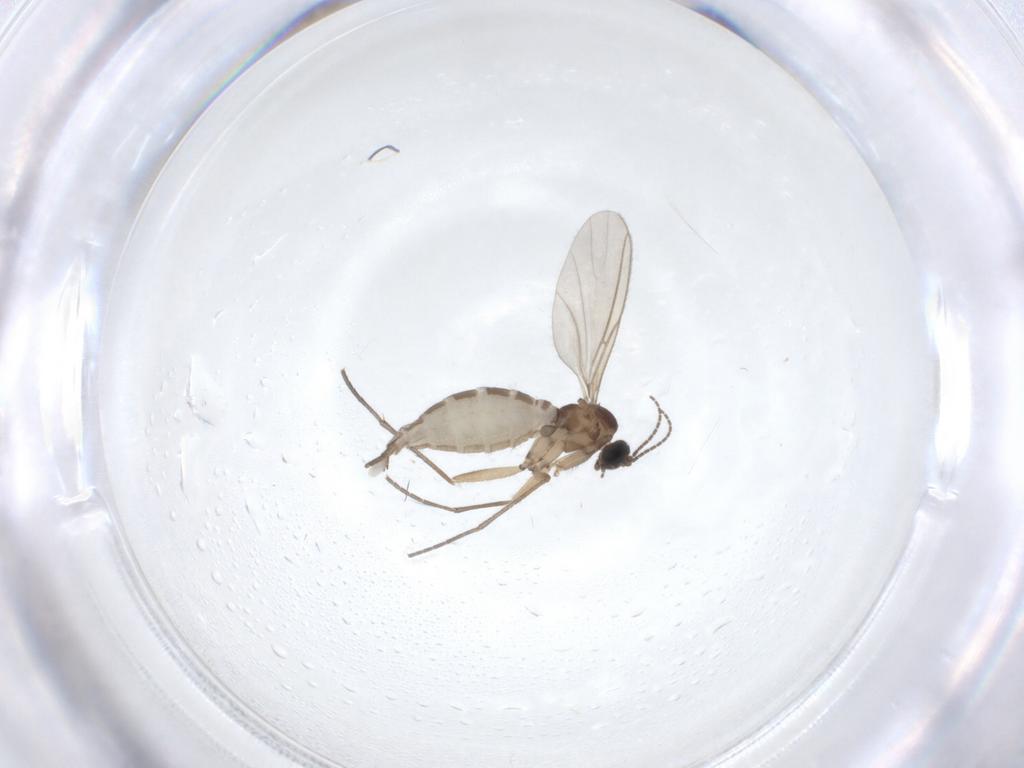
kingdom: Animalia
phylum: Arthropoda
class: Insecta
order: Diptera
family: Sciaridae
